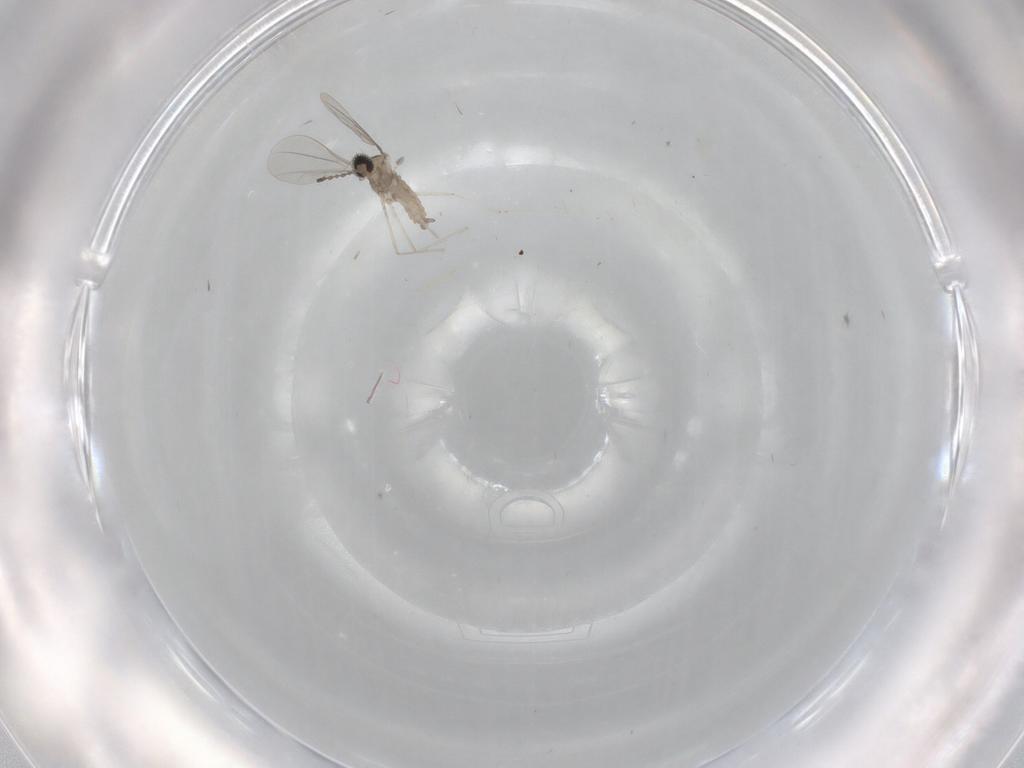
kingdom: Animalia
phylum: Arthropoda
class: Insecta
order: Diptera
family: Cecidomyiidae
